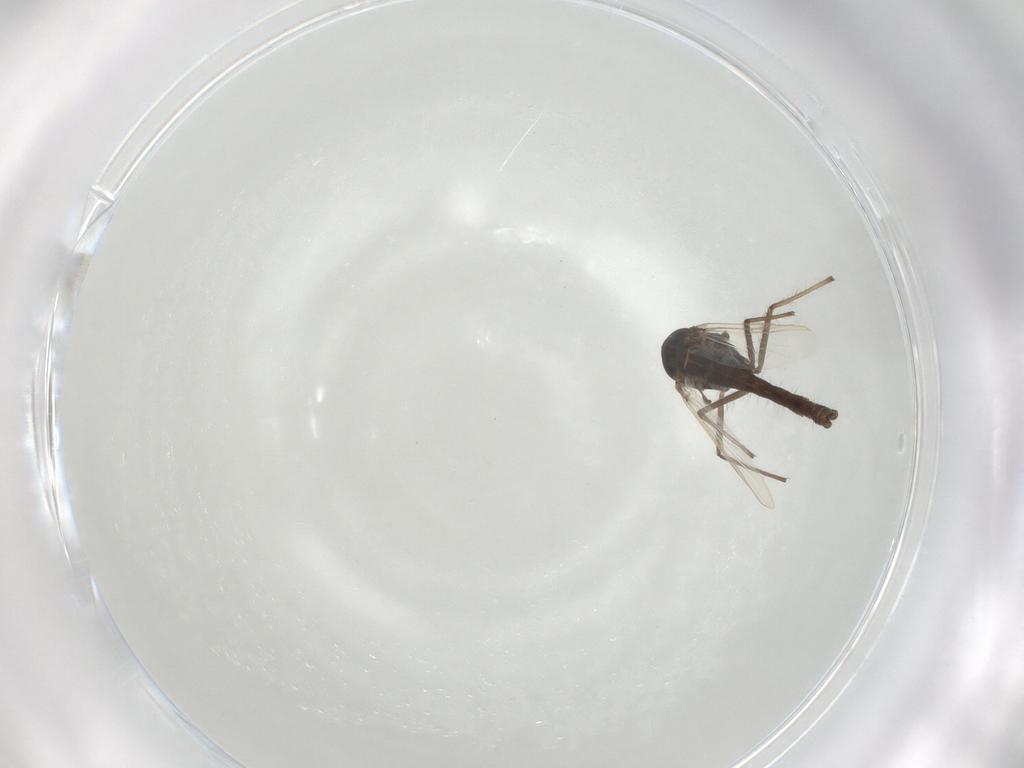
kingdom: Animalia
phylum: Arthropoda
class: Insecta
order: Diptera
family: Chironomidae
